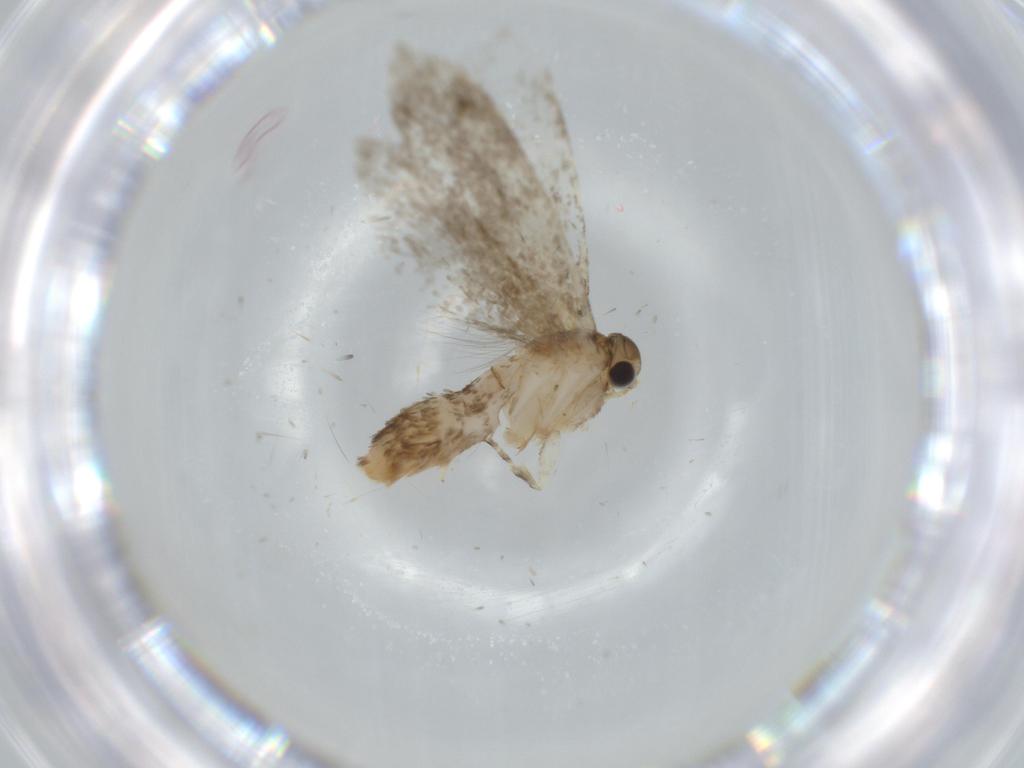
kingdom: Animalia
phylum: Arthropoda
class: Insecta
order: Lepidoptera
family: Tineidae
